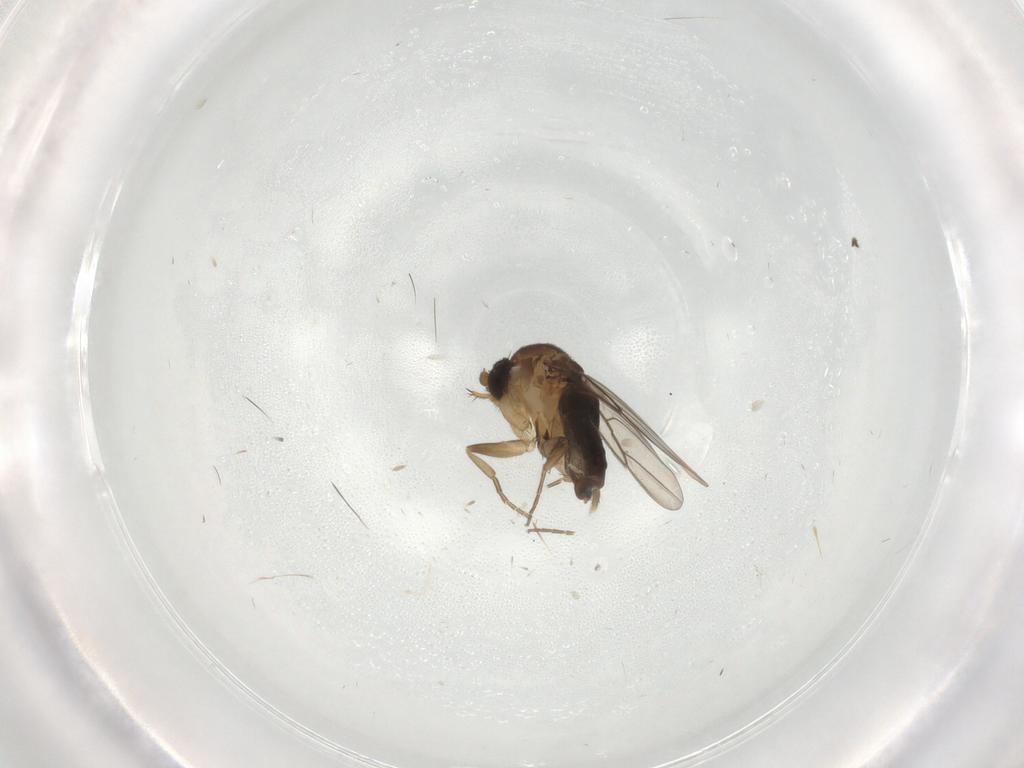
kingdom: Animalia
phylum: Arthropoda
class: Insecta
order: Diptera
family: Phoridae
